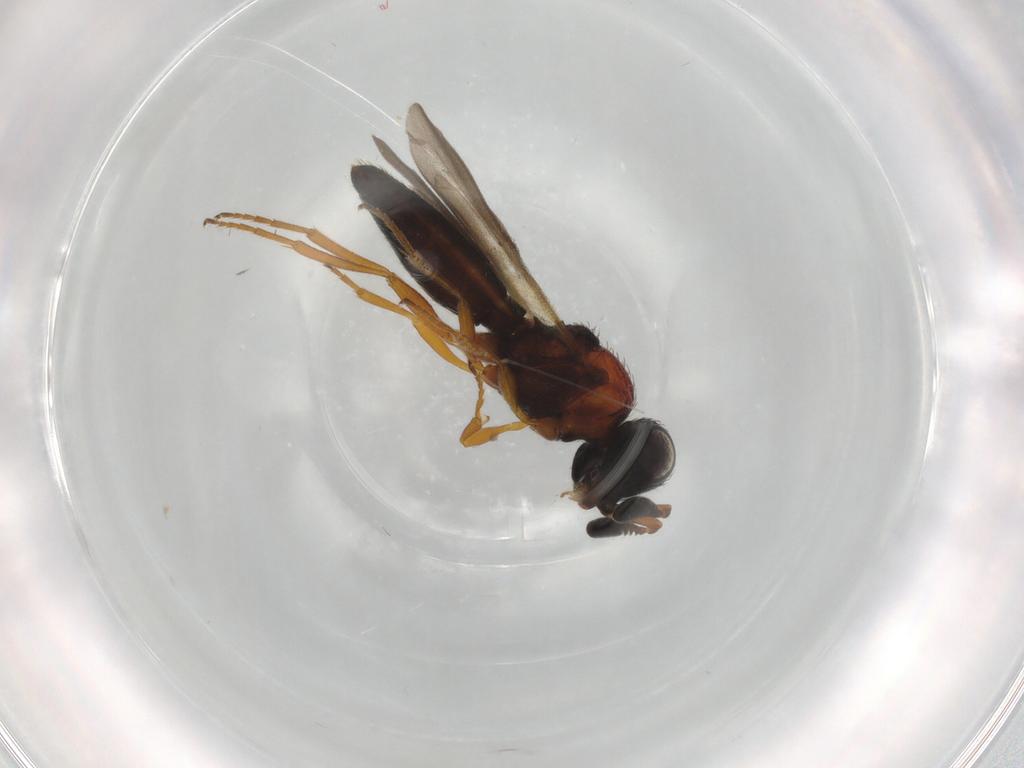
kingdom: Animalia
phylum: Arthropoda
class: Insecta
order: Hymenoptera
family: Scelionidae
